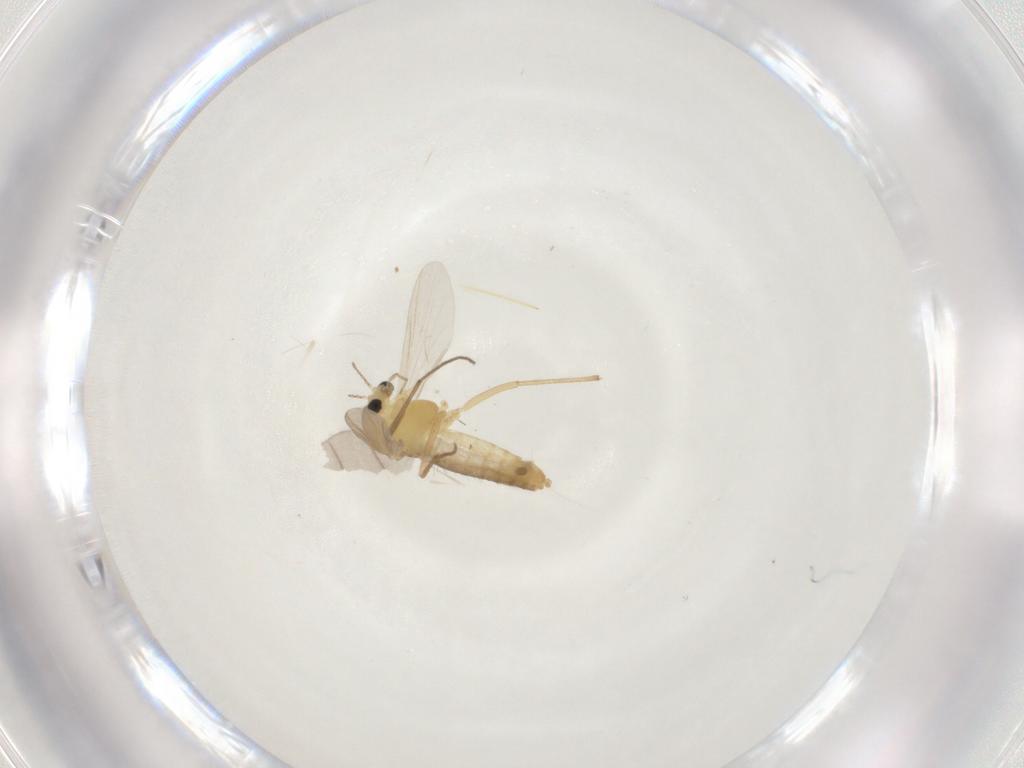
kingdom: Animalia
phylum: Arthropoda
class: Insecta
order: Diptera
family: Chironomidae
